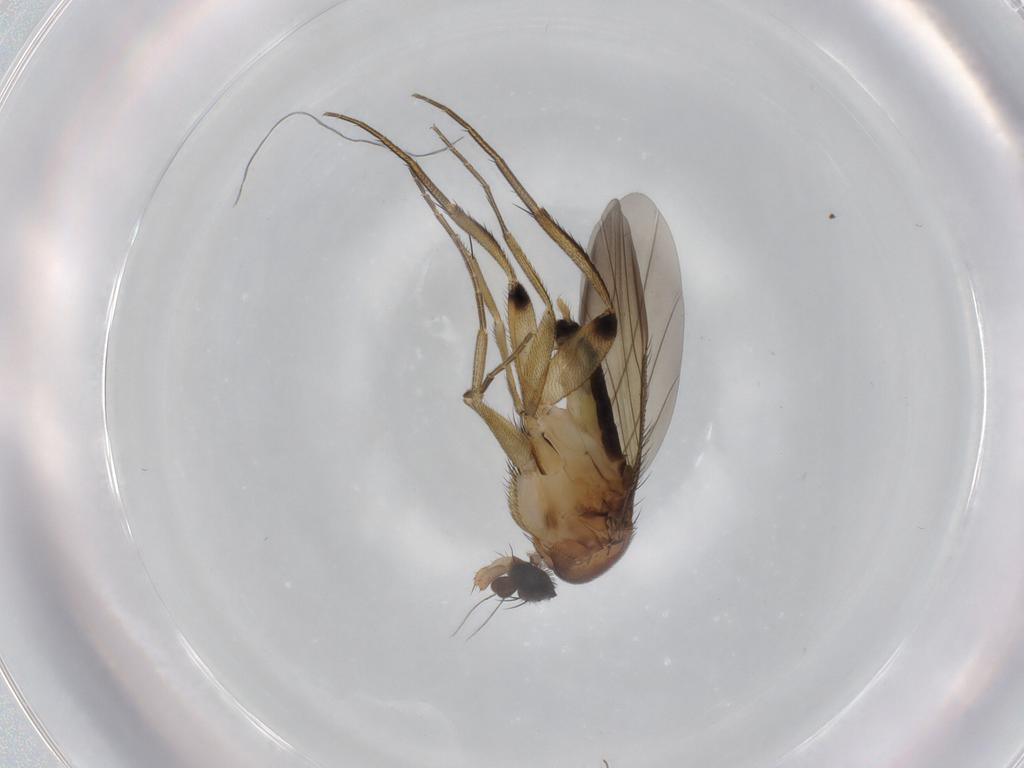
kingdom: Animalia
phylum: Arthropoda
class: Insecta
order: Diptera
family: Phoridae
